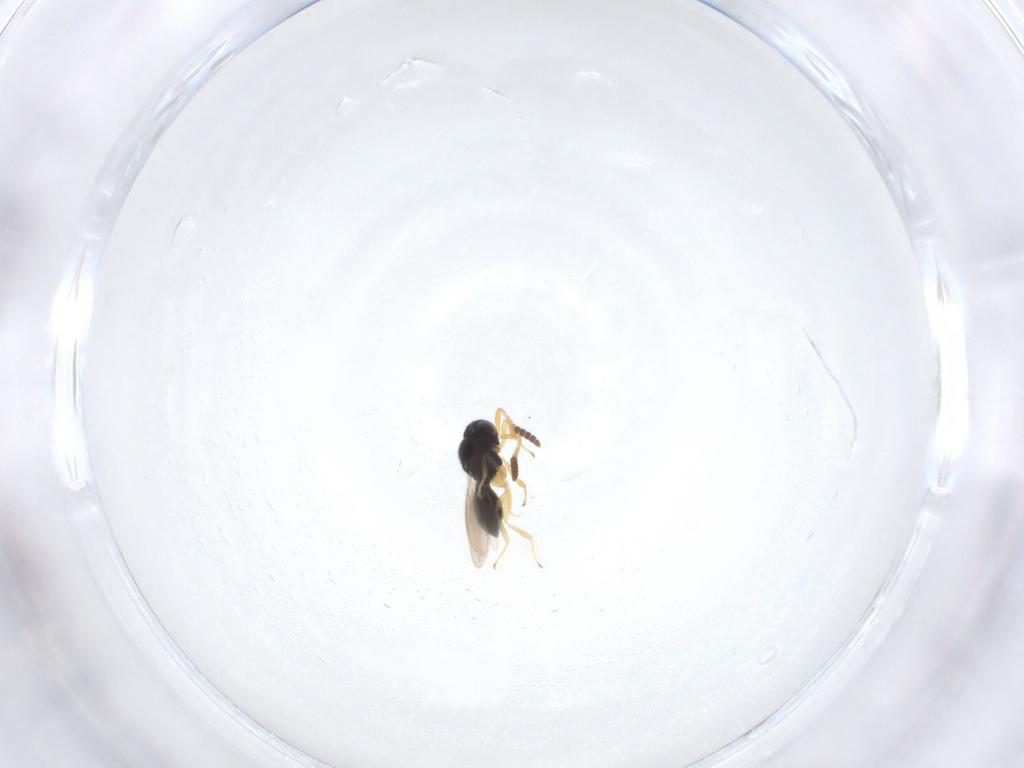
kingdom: Animalia
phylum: Arthropoda
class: Insecta
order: Hymenoptera
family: Scelionidae
